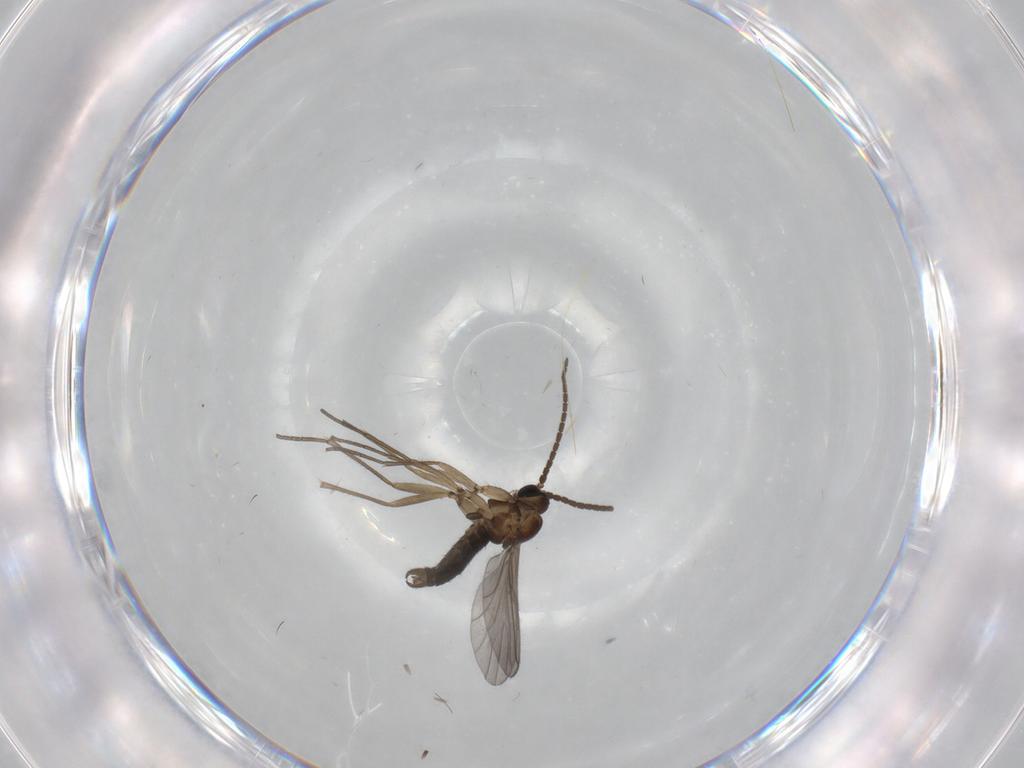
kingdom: Animalia
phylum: Arthropoda
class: Insecta
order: Diptera
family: Sciaridae
